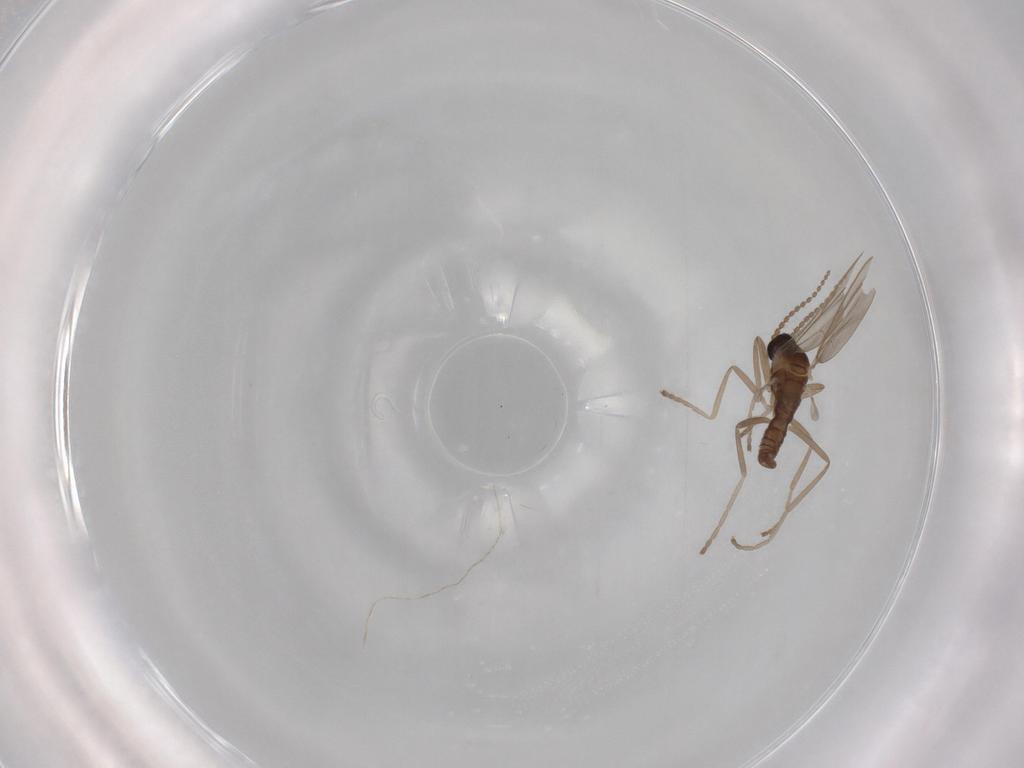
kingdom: Animalia
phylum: Arthropoda
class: Insecta
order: Diptera
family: Cecidomyiidae
